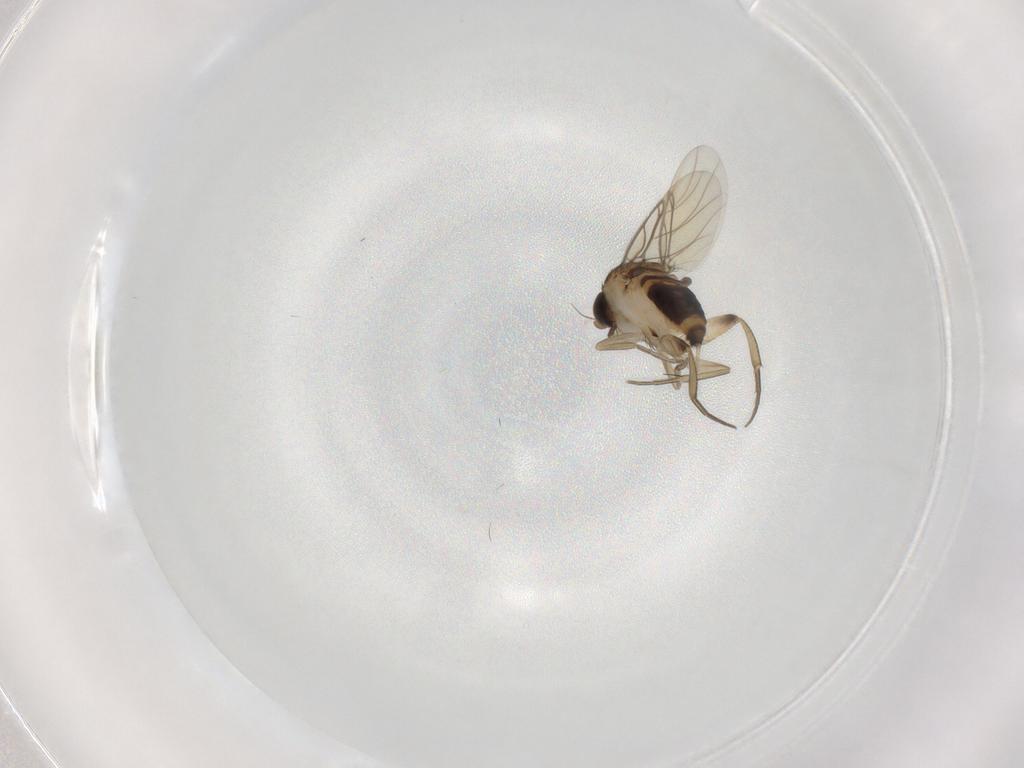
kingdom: Animalia
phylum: Arthropoda
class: Insecta
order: Diptera
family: Phoridae
